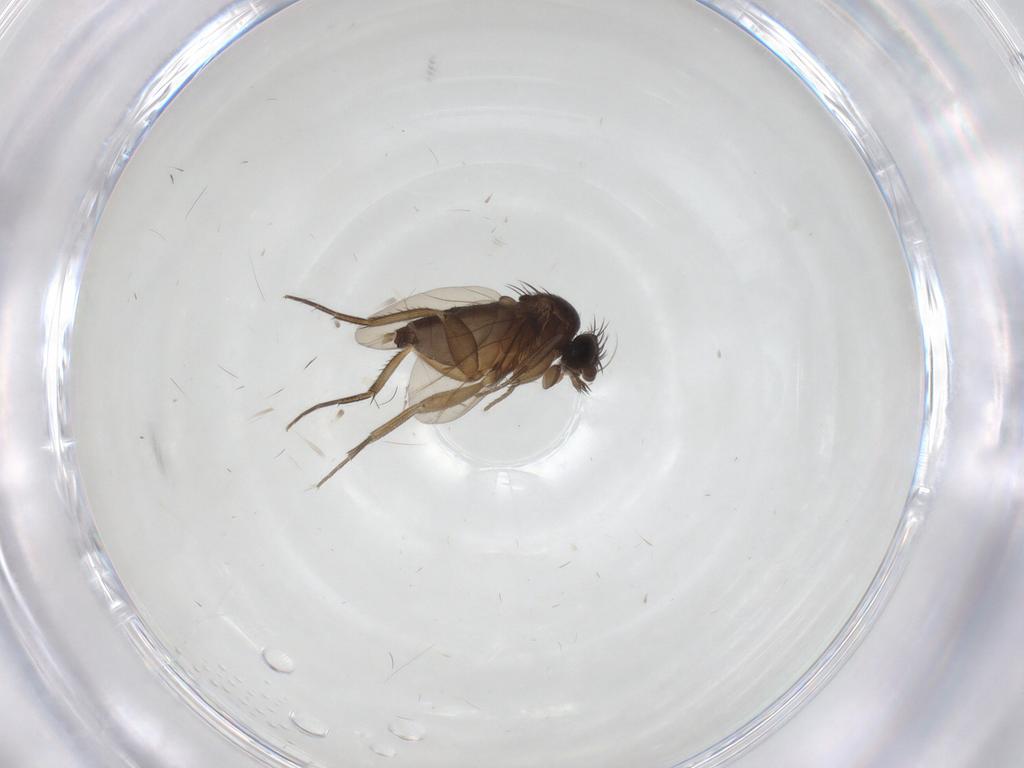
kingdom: Animalia
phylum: Arthropoda
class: Insecta
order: Diptera
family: Phoridae
